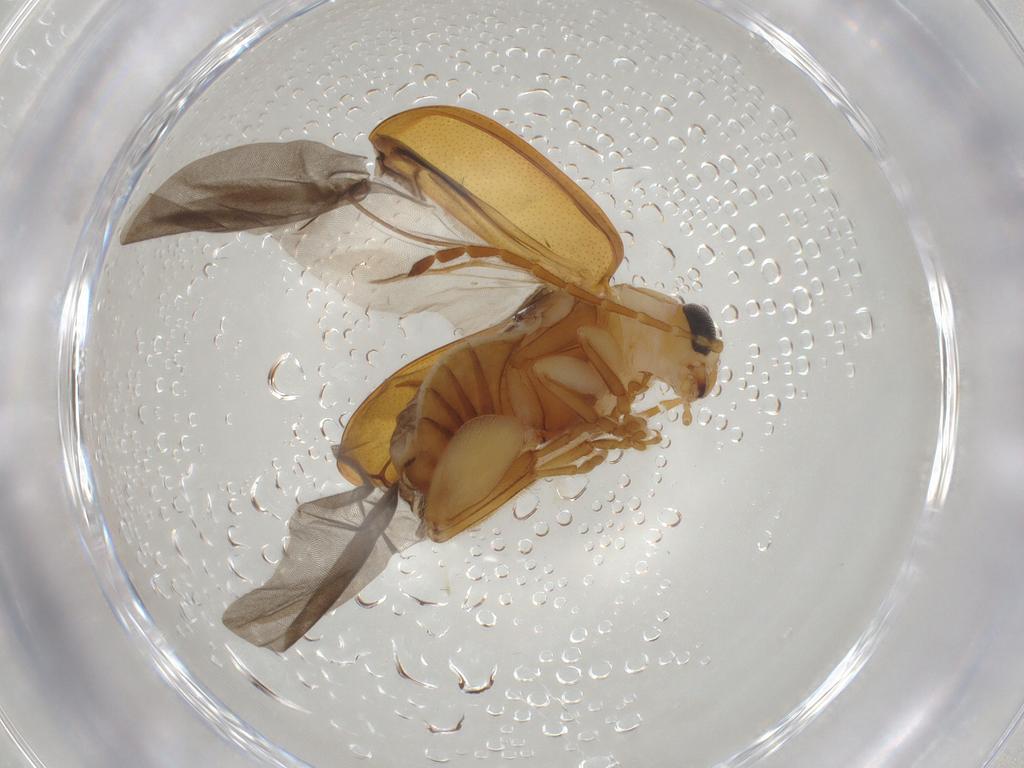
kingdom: Animalia
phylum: Arthropoda
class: Insecta
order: Coleoptera
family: Chrysomelidae
